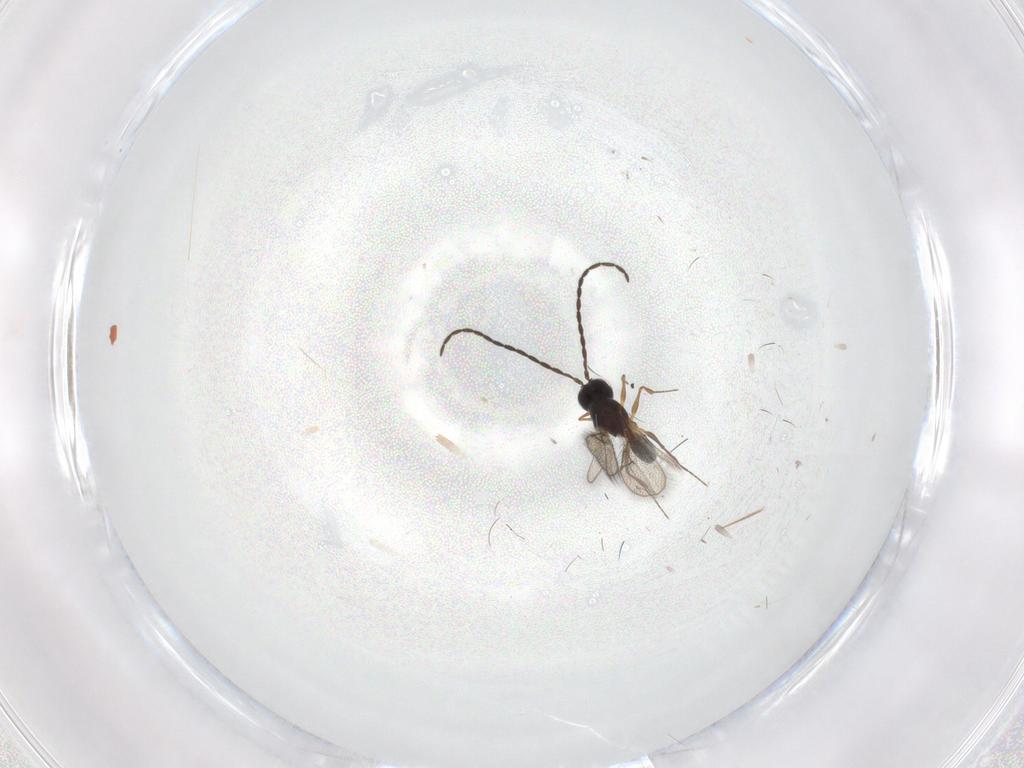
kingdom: Animalia
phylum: Arthropoda
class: Insecta
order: Hymenoptera
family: Figitidae
